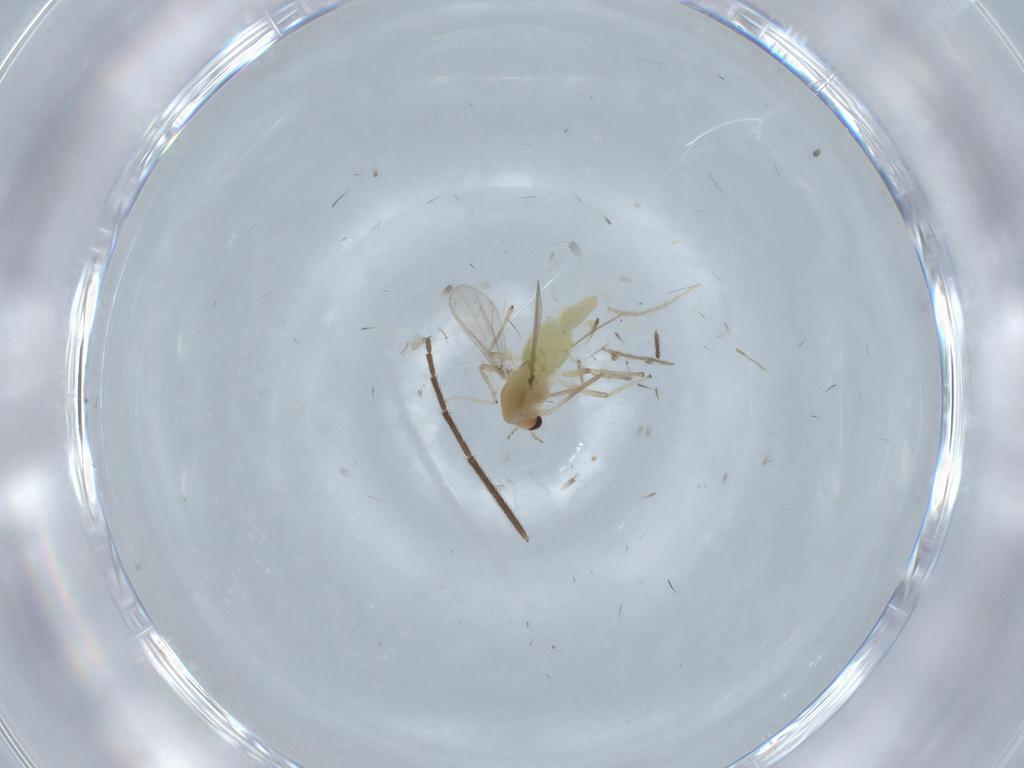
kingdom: Animalia
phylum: Arthropoda
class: Insecta
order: Diptera
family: Chironomidae
